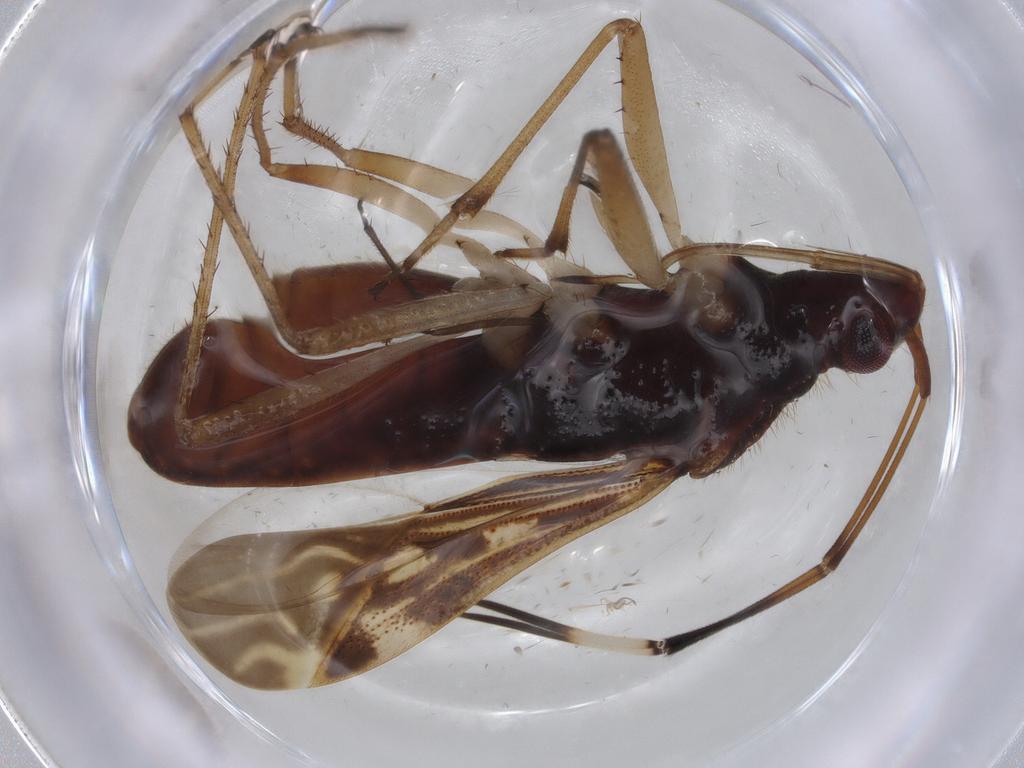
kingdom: Animalia
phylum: Arthropoda
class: Insecta
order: Hemiptera
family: Rhyparochromidae
